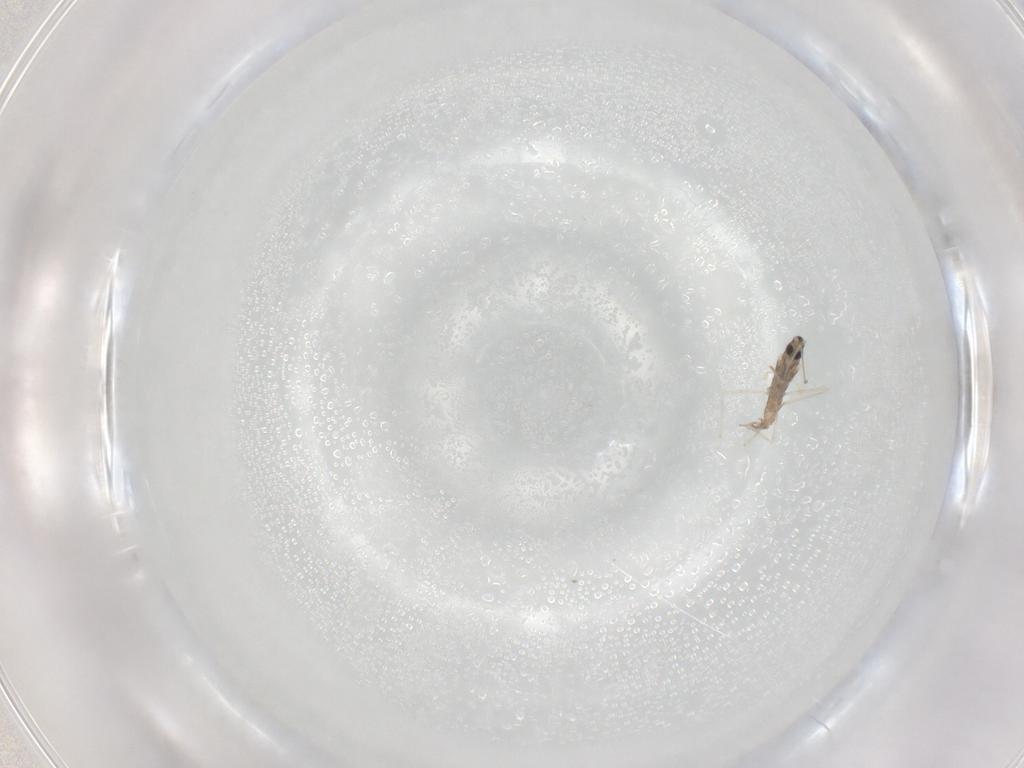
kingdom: Animalia
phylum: Arthropoda
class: Insecta
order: Diptera
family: Cecidomyiidae
